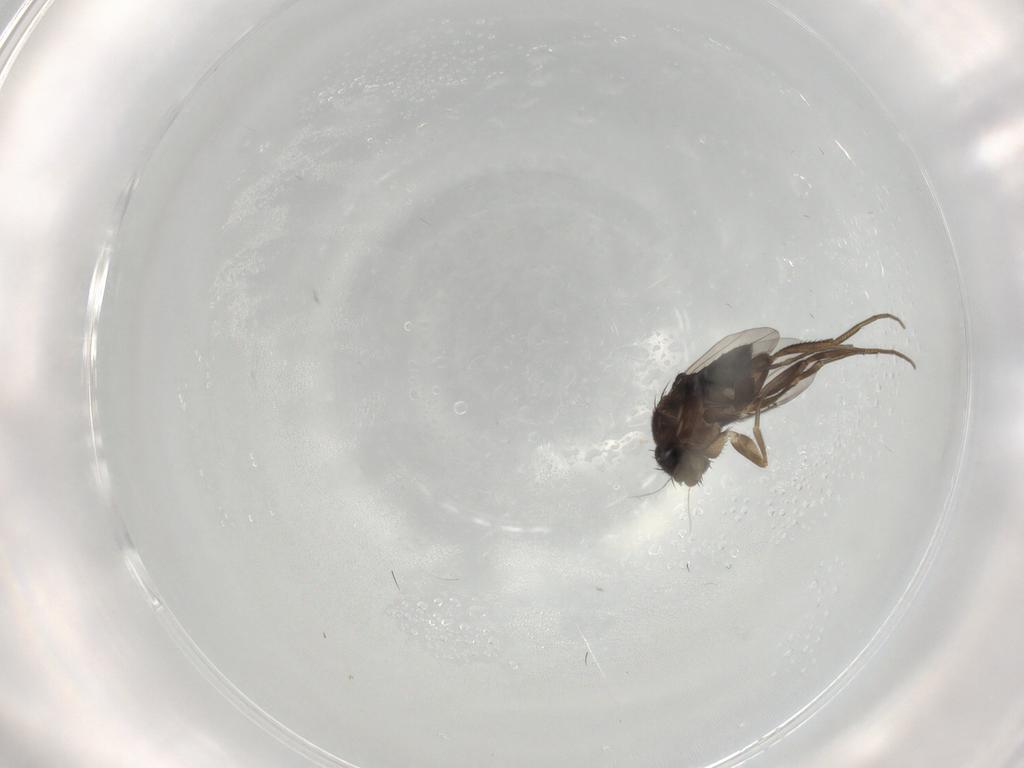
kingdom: Animalia
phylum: Arthropoda
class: Insecta
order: Diptera
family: Phoridae
